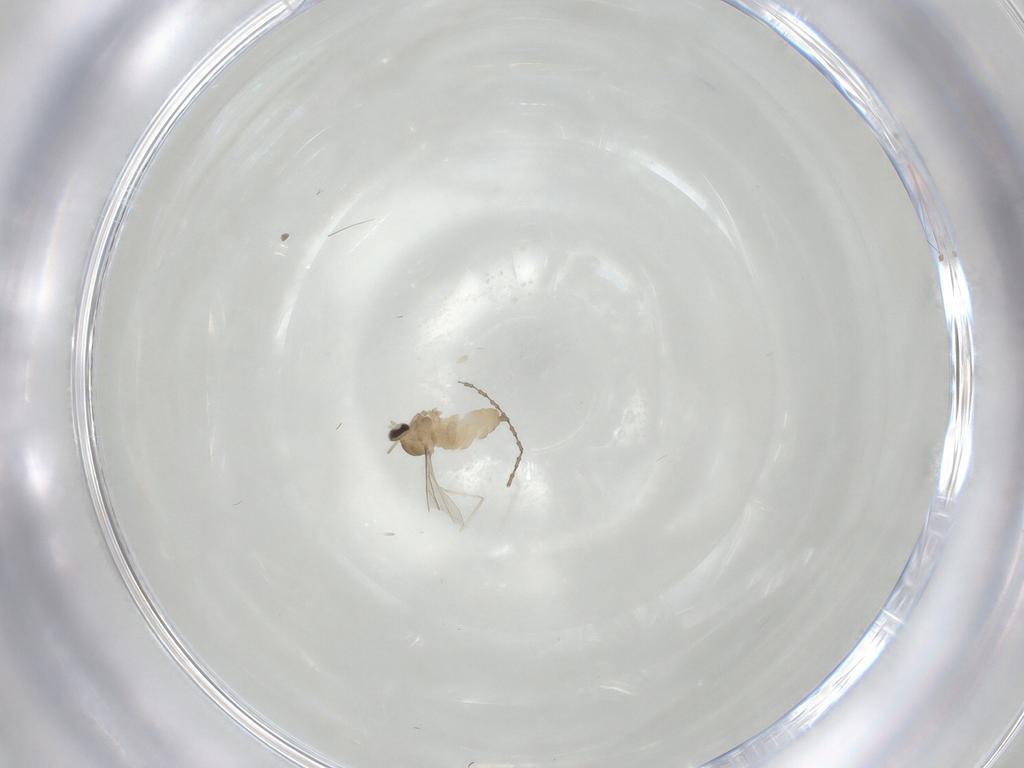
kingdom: Animalia
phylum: Arthropoda
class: Insecta
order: Diptera
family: Cecidomyiidae
